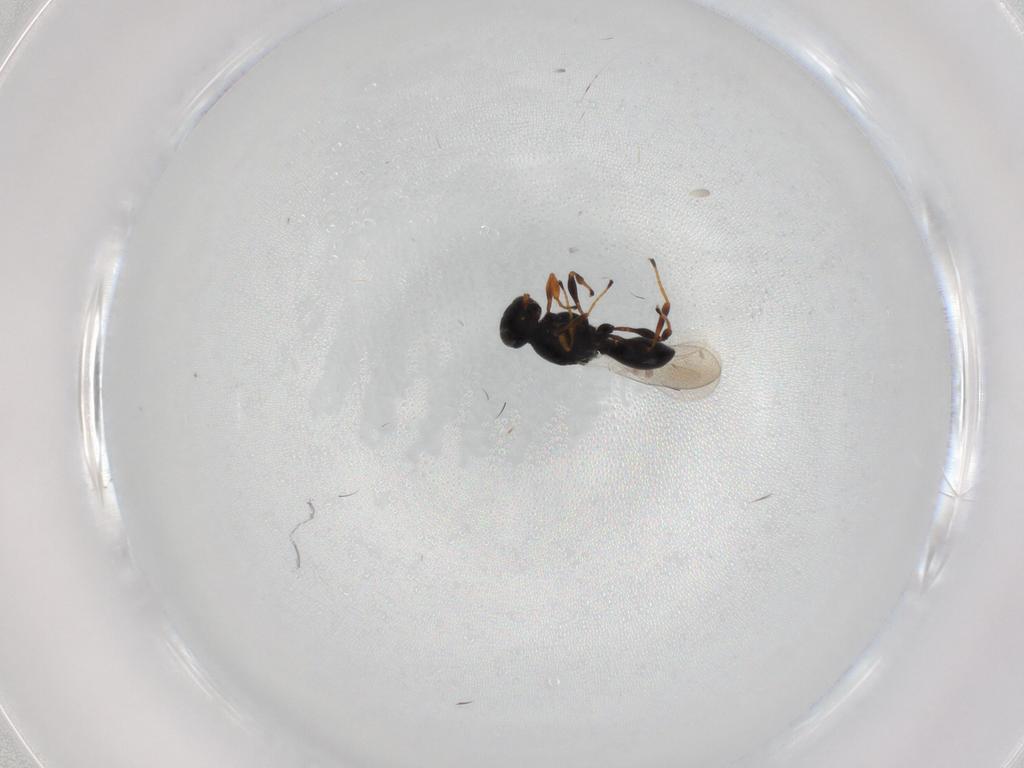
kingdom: Animalia
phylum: Arthropoda
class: Insecta
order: Hymenoptera
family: Platygastridae
